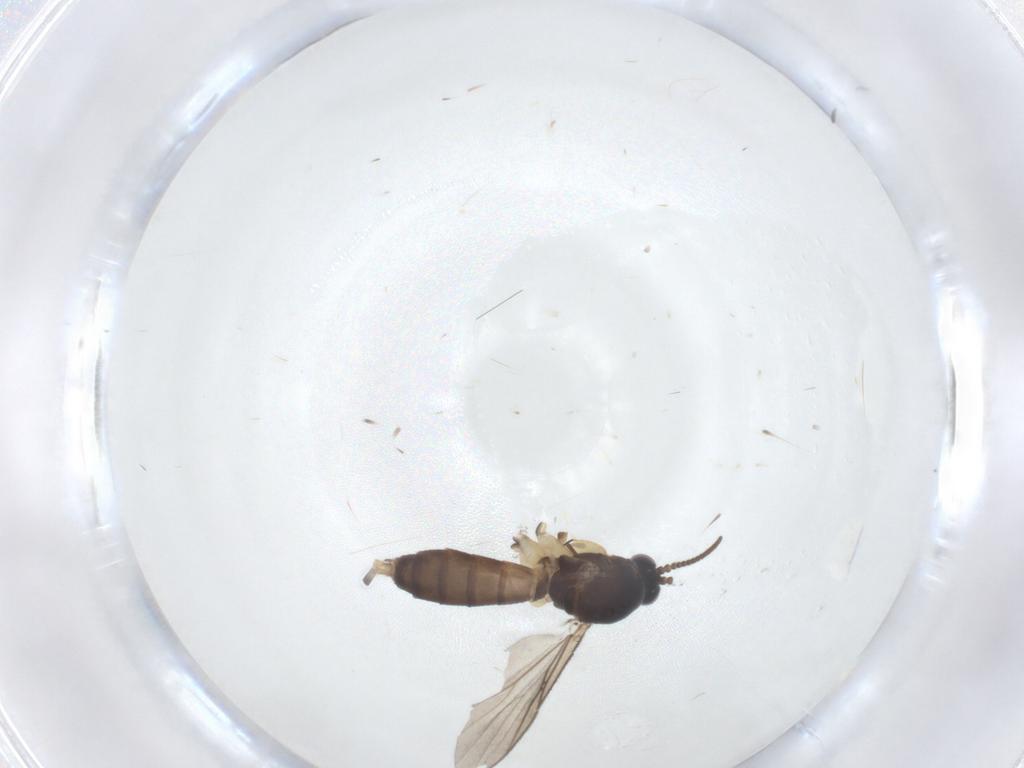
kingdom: Animalia
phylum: Arthropoda
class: Insecta
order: Diptera
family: Sciaridae
